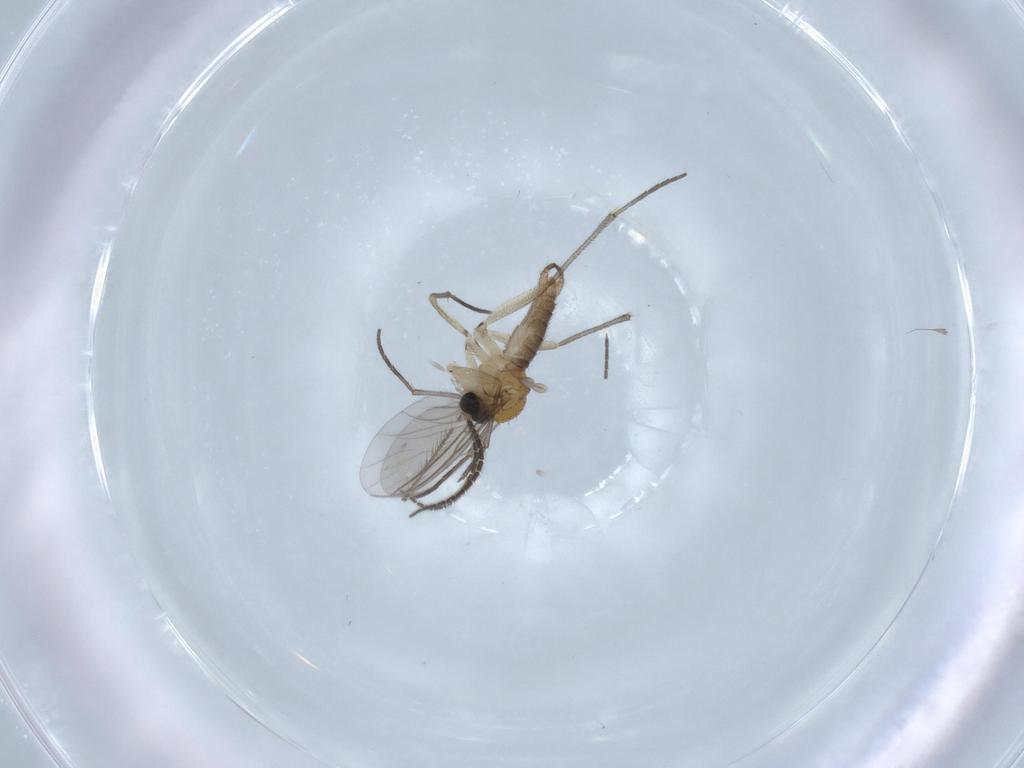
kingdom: Animalia
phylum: Arthropoda
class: Insecta
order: Diptera
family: Sciaridae
